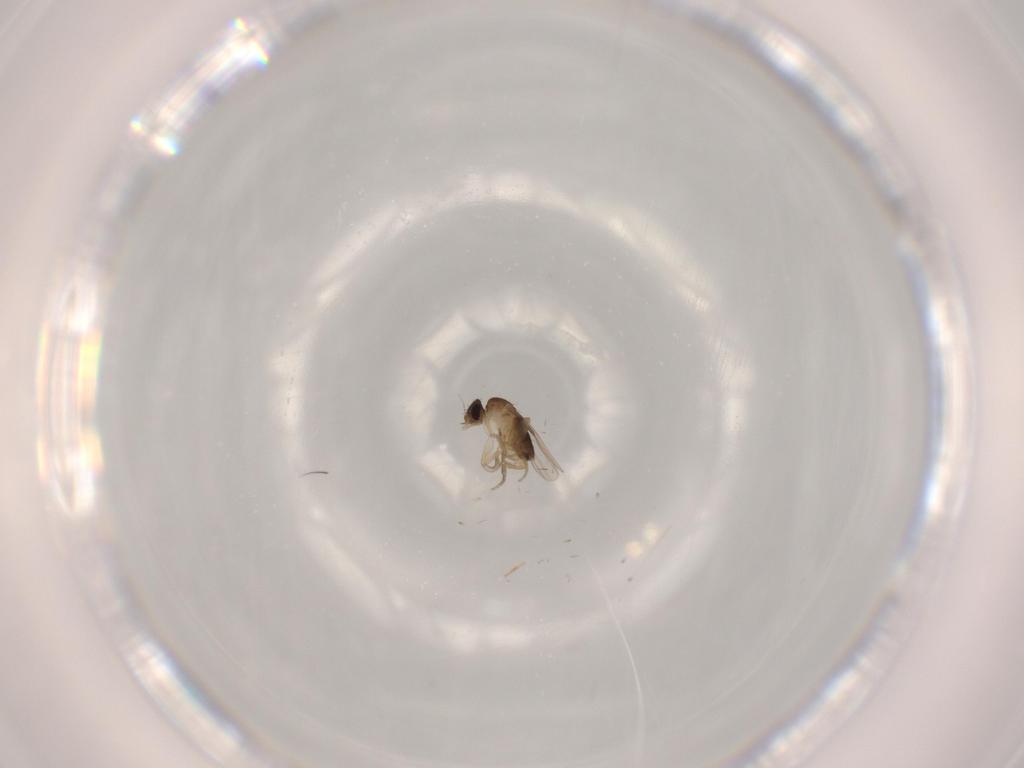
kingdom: Animalia
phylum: Arthropoda
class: Insecta
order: Diptera
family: Phoridae
